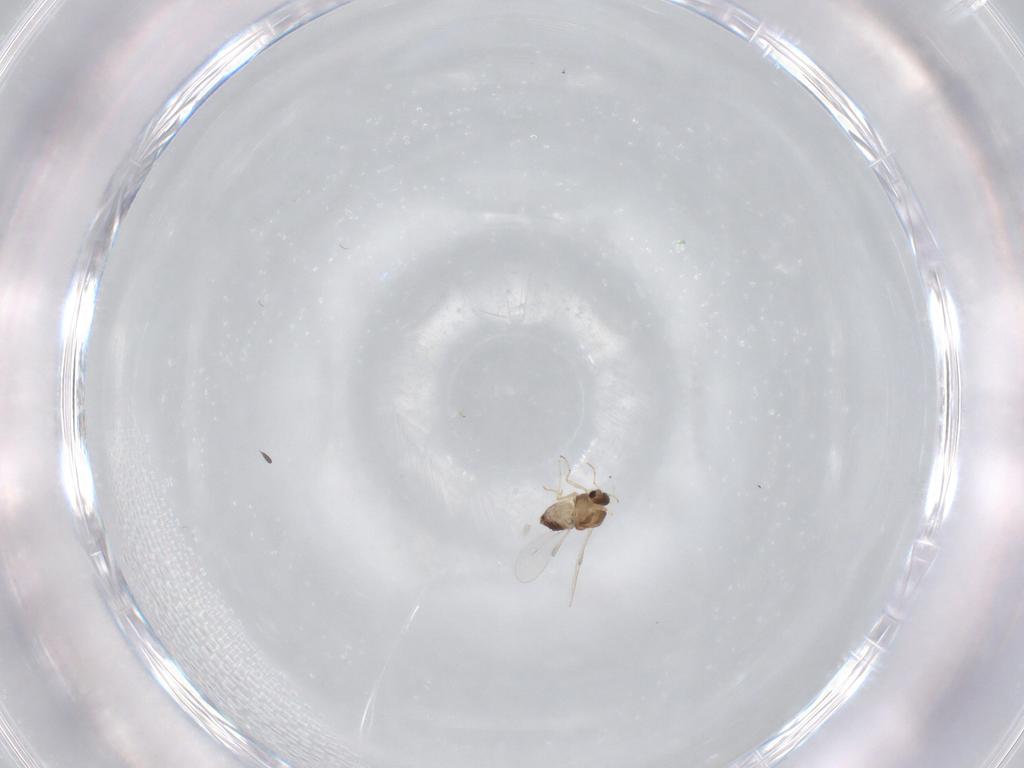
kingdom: Animalia
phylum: Arthropoda
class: Insecta
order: Diptera
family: Chironomidae
